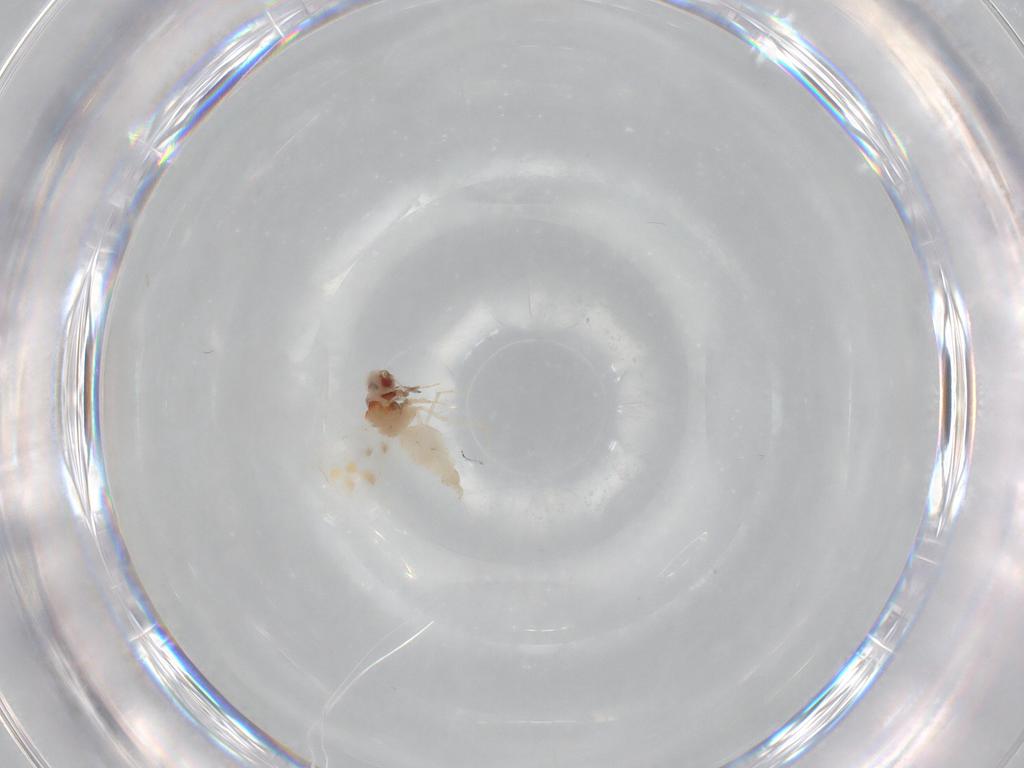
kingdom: Animalia
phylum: Arthropoda
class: Insecta
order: Hemiptera
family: Aleyrodidae
